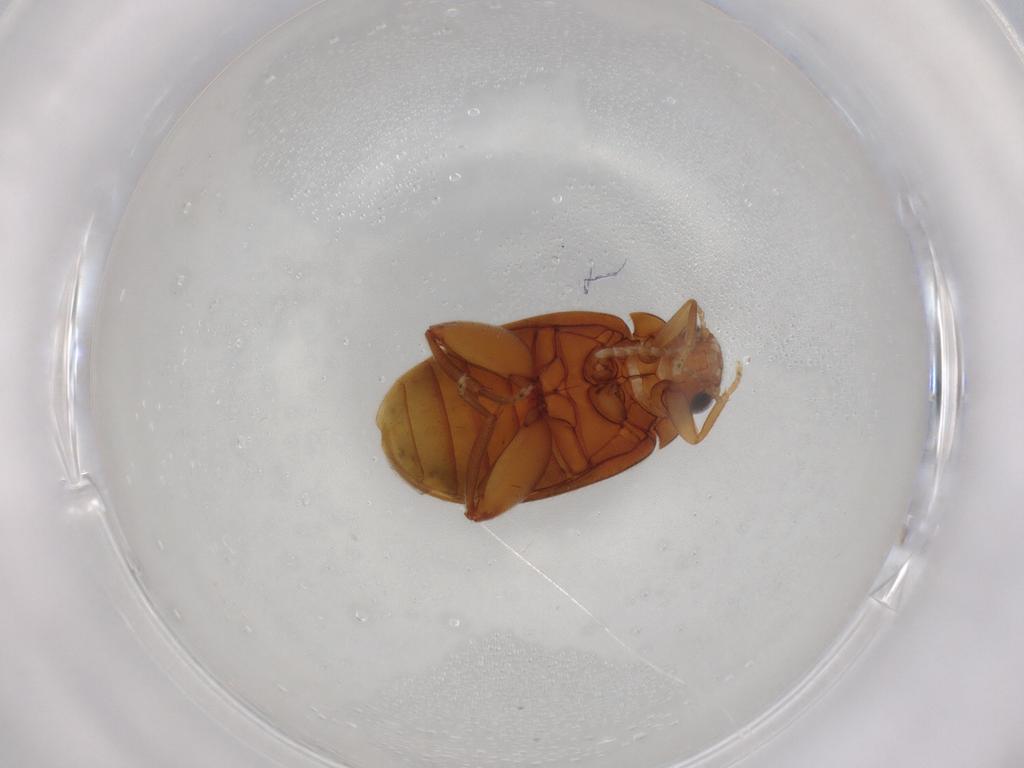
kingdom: Animalia
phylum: Arthropoda
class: Insecta
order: Coleoptera
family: Scirtidae
